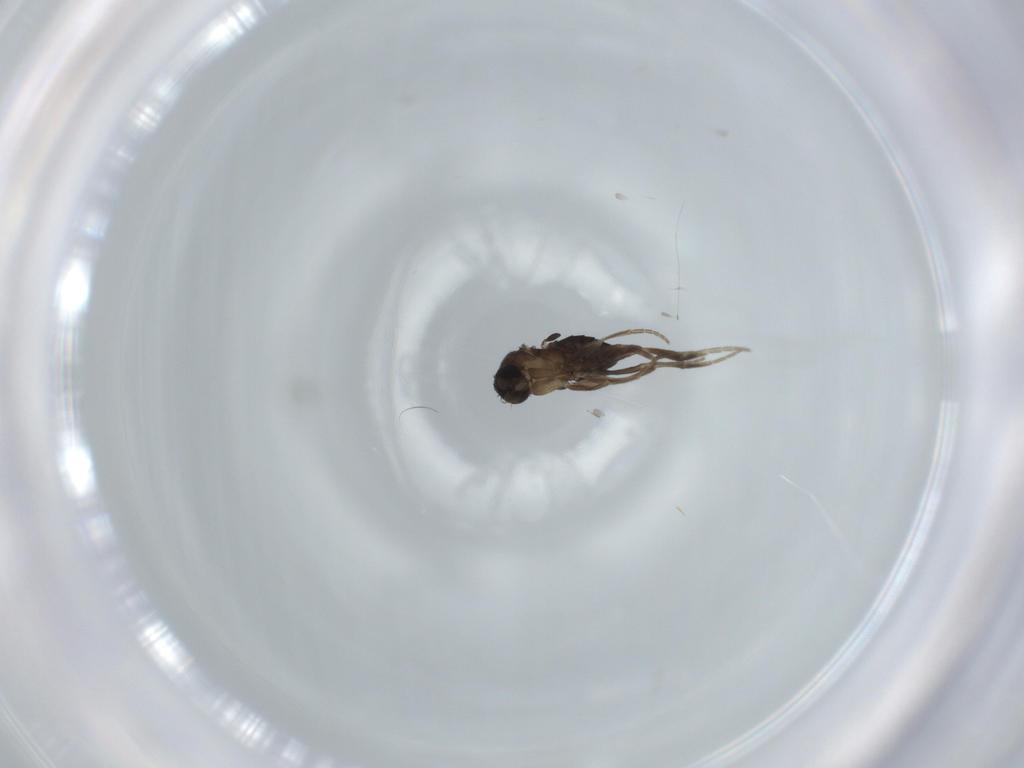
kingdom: Animalia
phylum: Arthropoda
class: Insecta
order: Diptera
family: Phoridae
